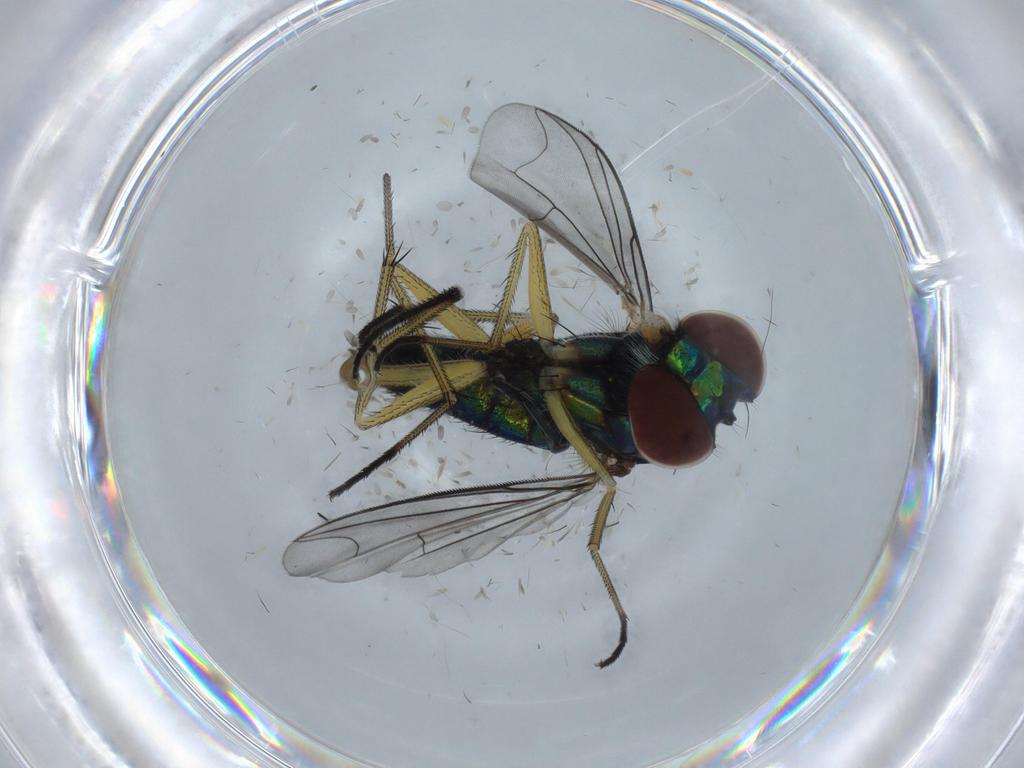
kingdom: Animalia
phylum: Arthropoda
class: Insecta
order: Diptera
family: Dolichopodidae
